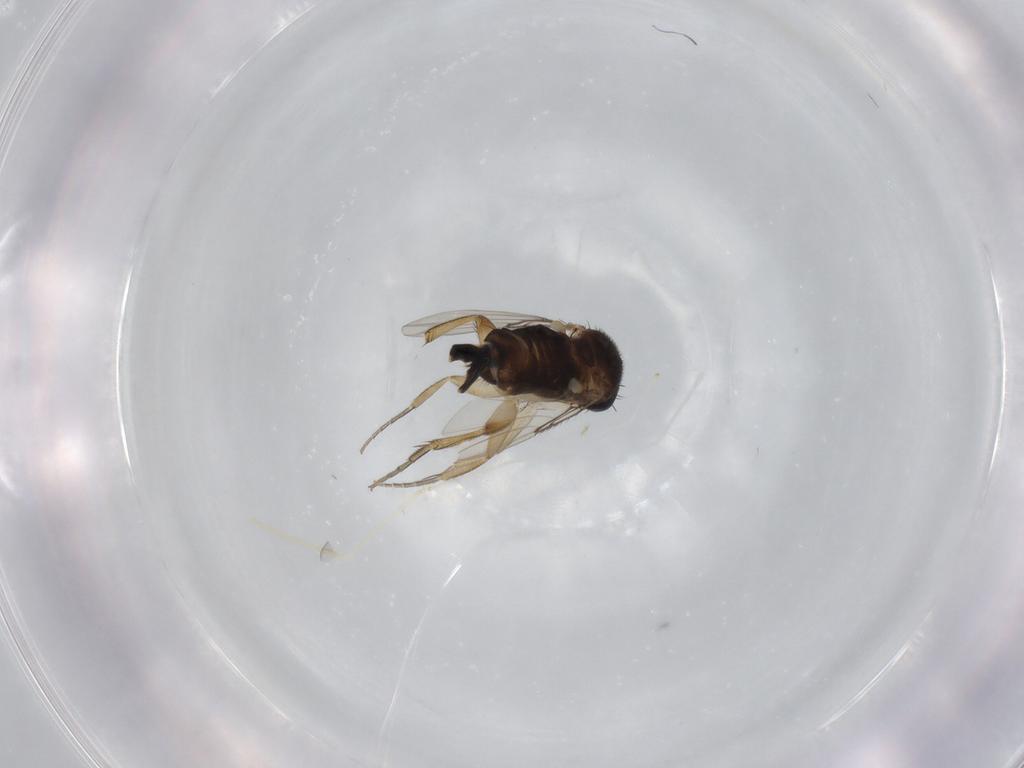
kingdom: Animalia
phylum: Arthropoda
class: Insecta
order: Diptera
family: Phoridae
